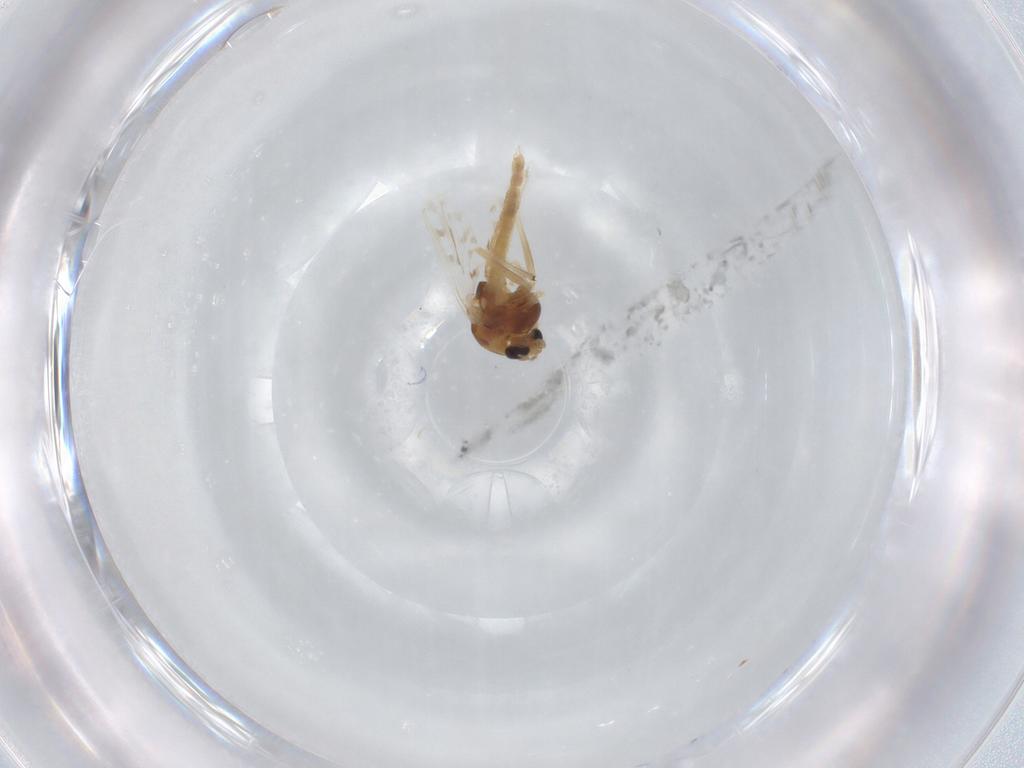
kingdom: Animalia
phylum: Arthropoda
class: Insecta
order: Diptera
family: Chironomidae
